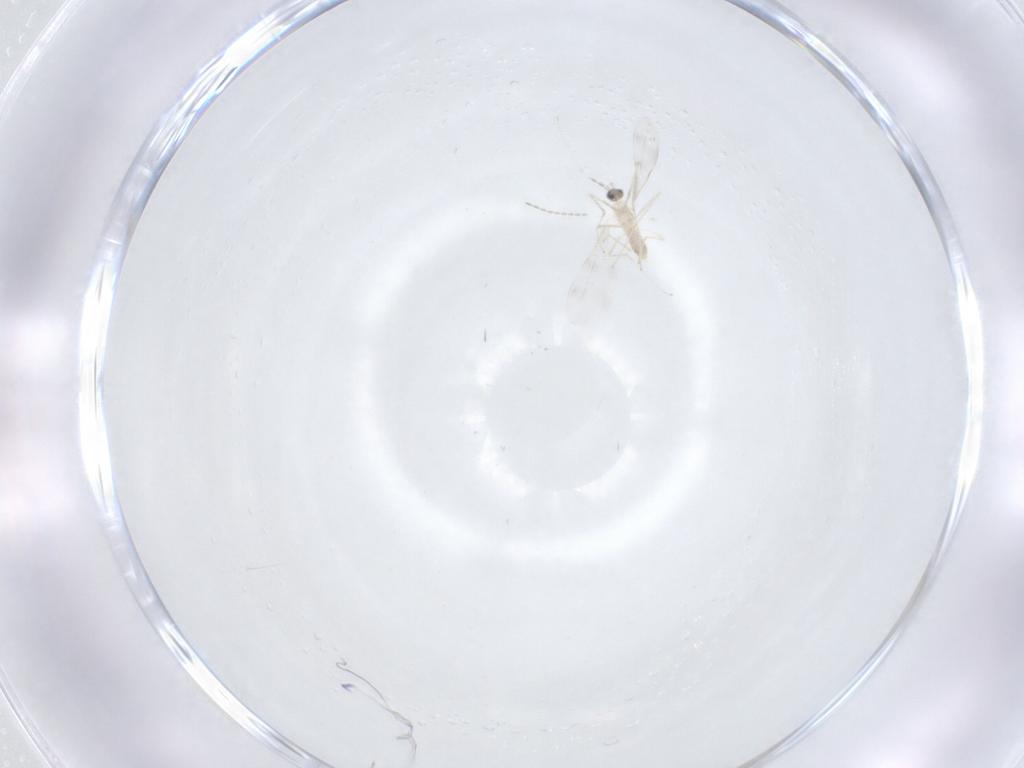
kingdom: Animalia
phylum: Arthropoda
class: Insecta
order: Diptera
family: Cecidomyiidae
